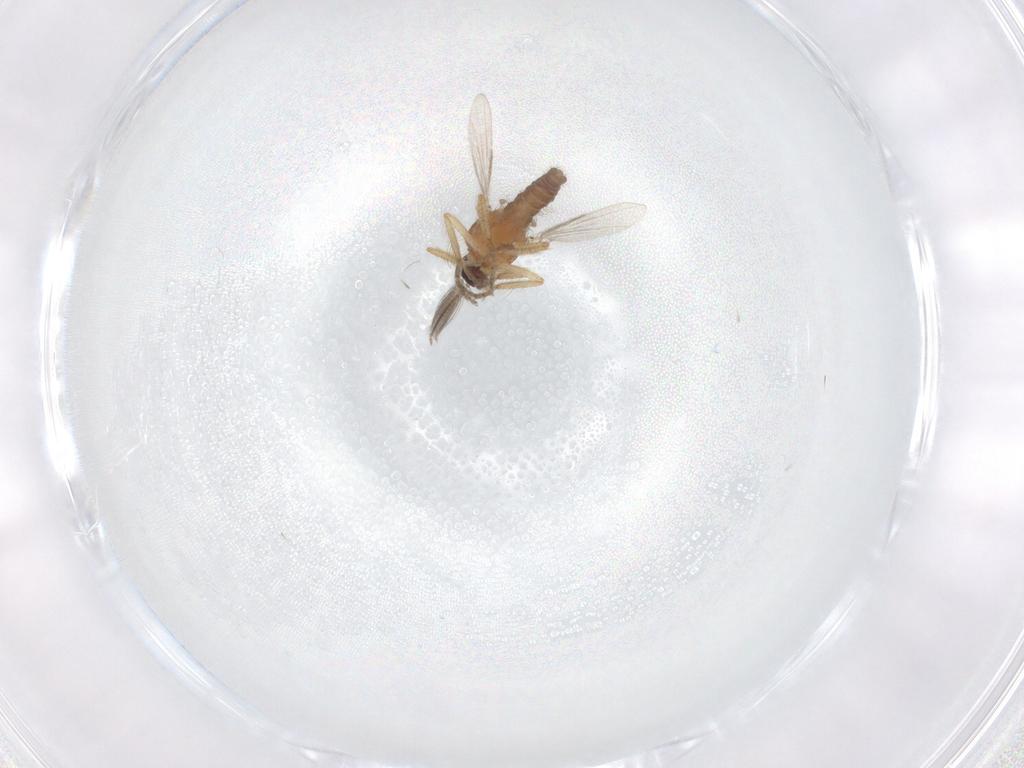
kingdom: Animalia
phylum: Arthropoda
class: Insecta
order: Diptera
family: Ceratopogonidae
